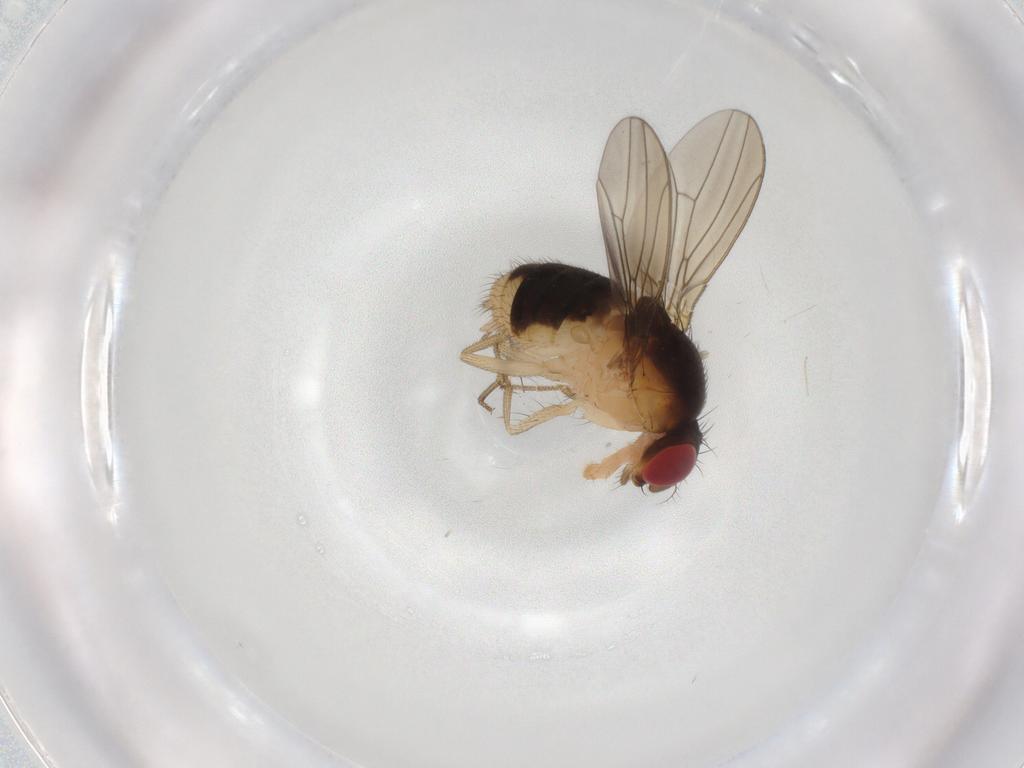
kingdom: Animalia
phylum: Arthropoda
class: Insecta
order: Diptera
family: Drosophilidae
